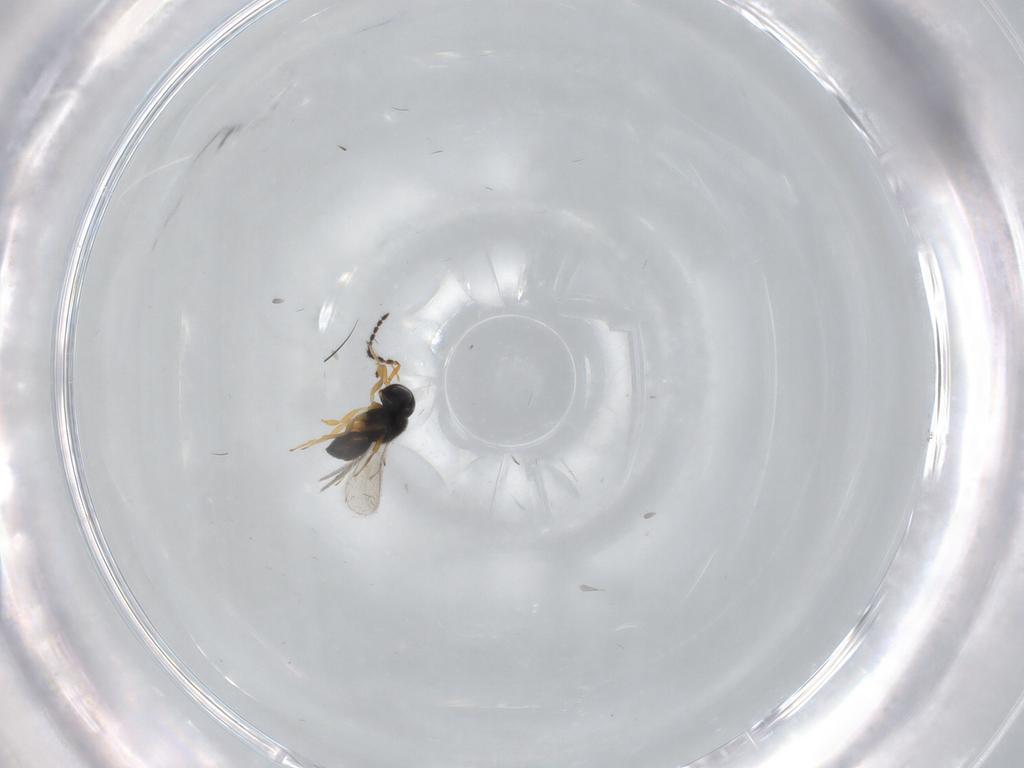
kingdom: Animalia
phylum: Arthropoda
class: Insecta
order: Hymenoptera
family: Scelionidae
